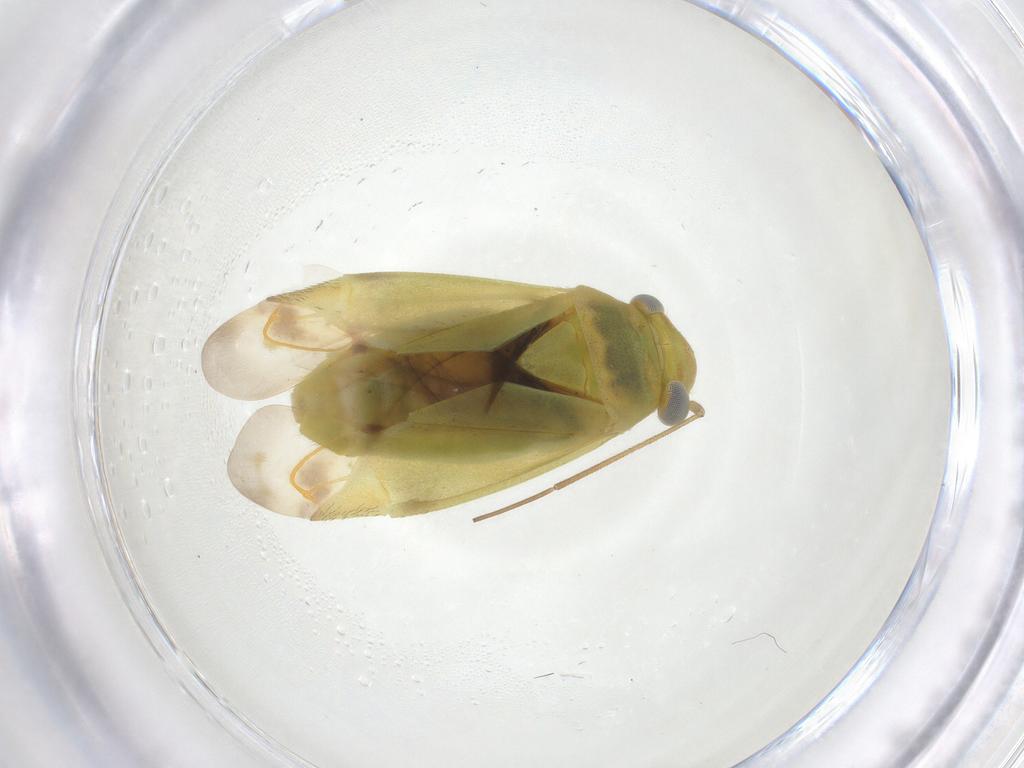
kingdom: Animalia
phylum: Arthropoda
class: Insecta
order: Hemiptera
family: Miridae
